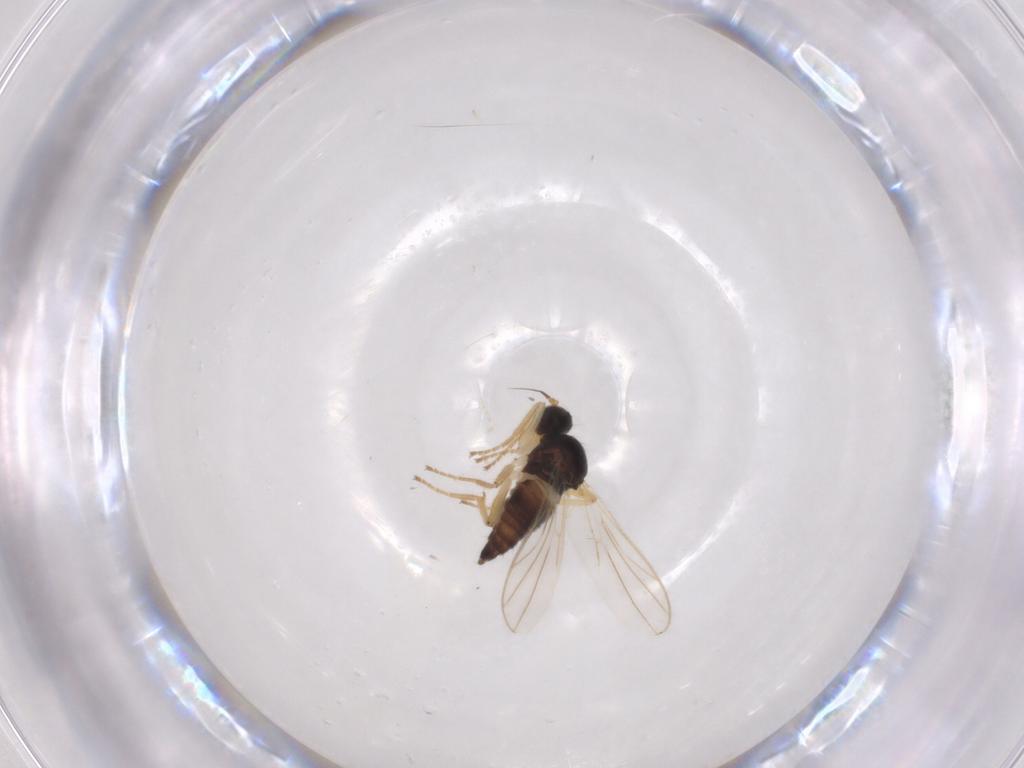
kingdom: Animalia
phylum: Arthropoda
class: Insecta
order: Diptera
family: Hybotidae
